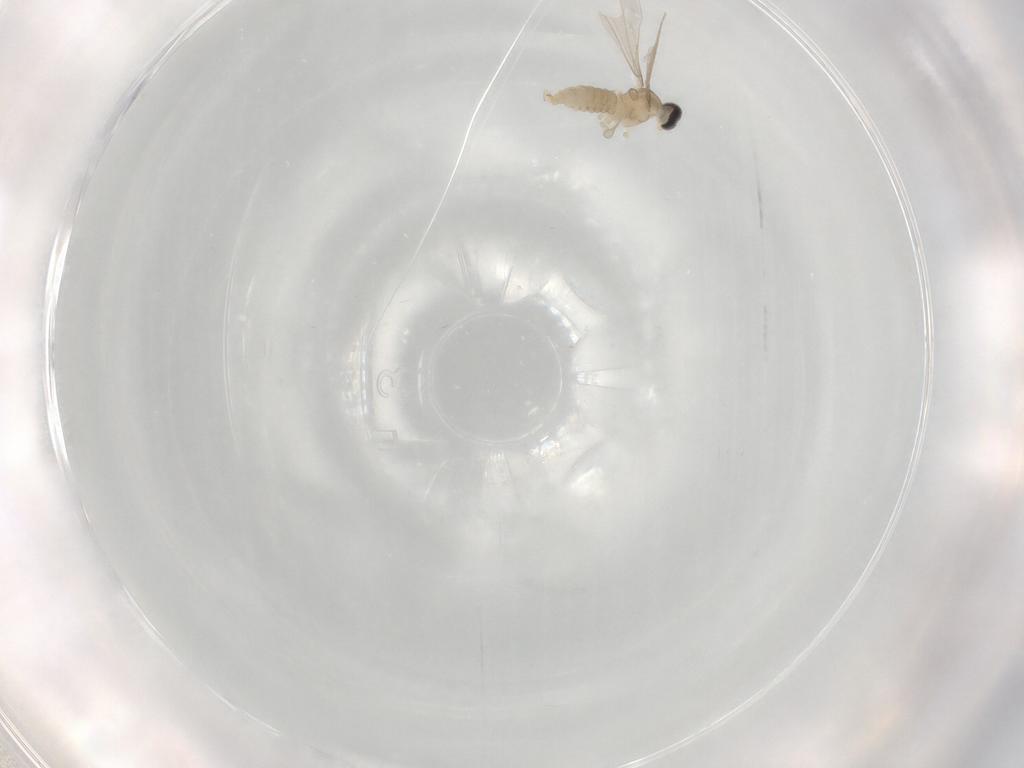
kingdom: Animalia
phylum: Arthropoda
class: Insecta
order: Diptera
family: Cecidomyiidae
